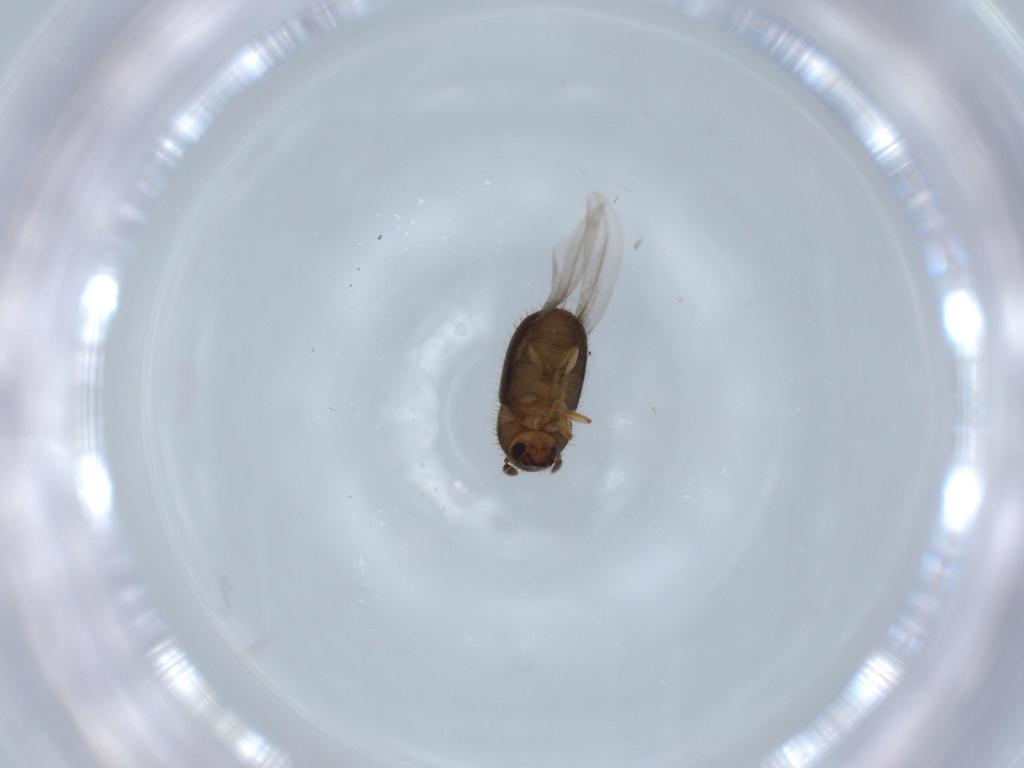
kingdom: Animalia
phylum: Arthropoda
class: Insecta
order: Coleoptera
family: Curculionidae
